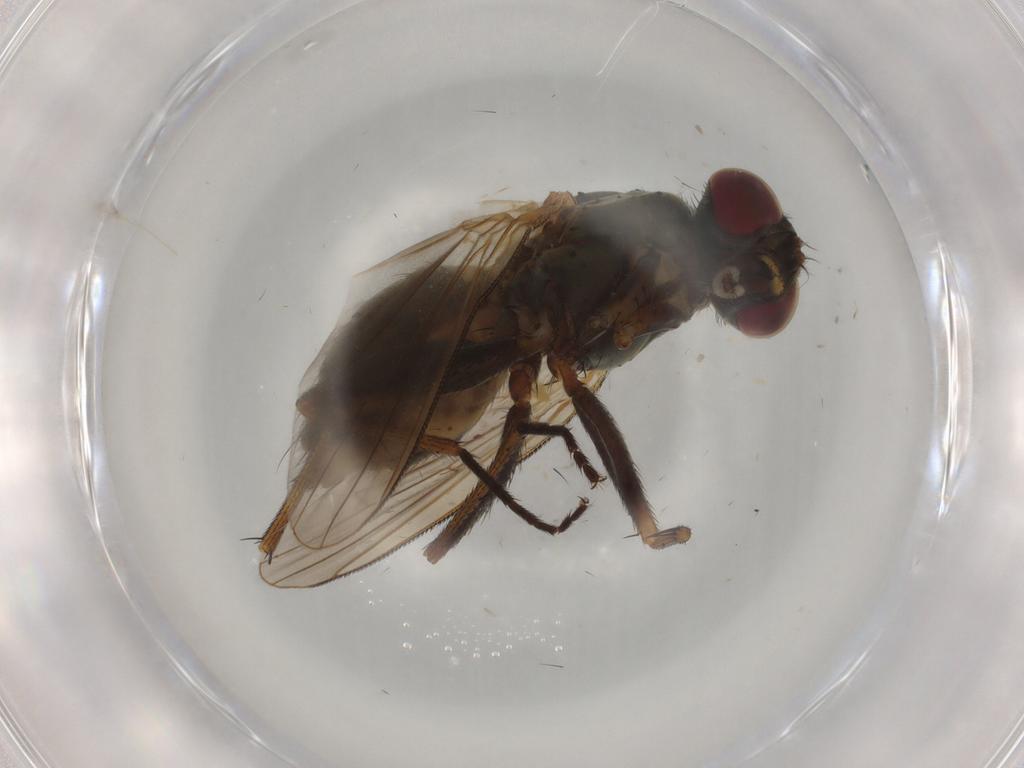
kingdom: Animalia
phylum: Arthropoda
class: Insecta
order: Diptera
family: Muscidae
